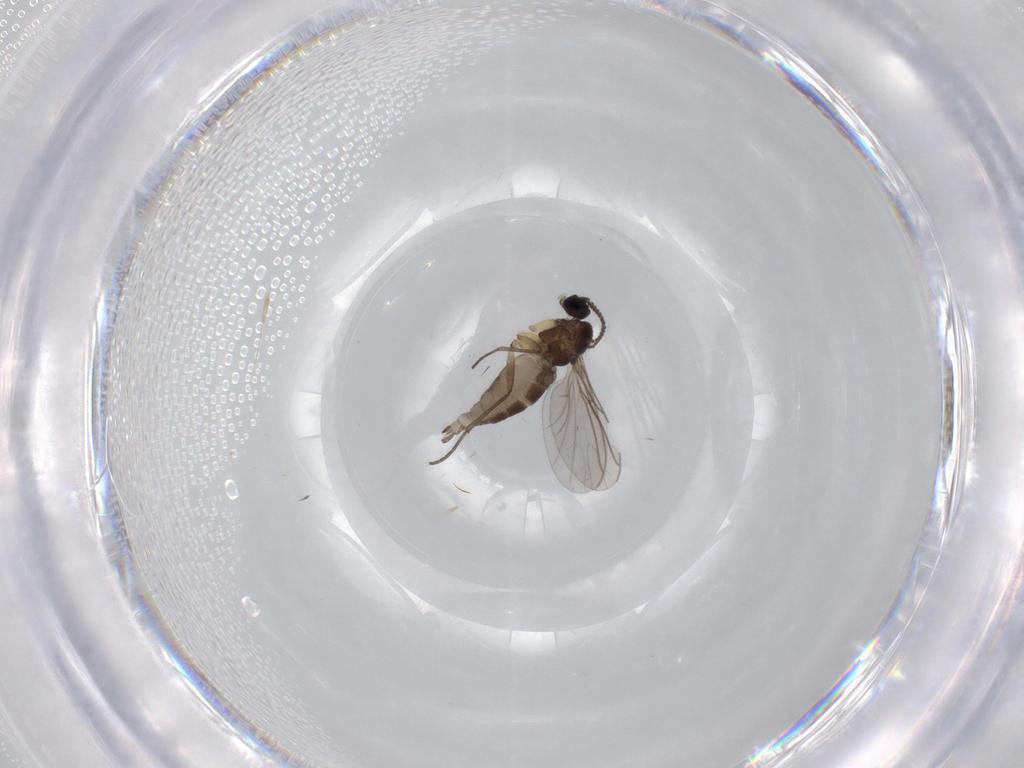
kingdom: Animalia
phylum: Arthropoda
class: Insecta
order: Diptera
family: Sciaridae
